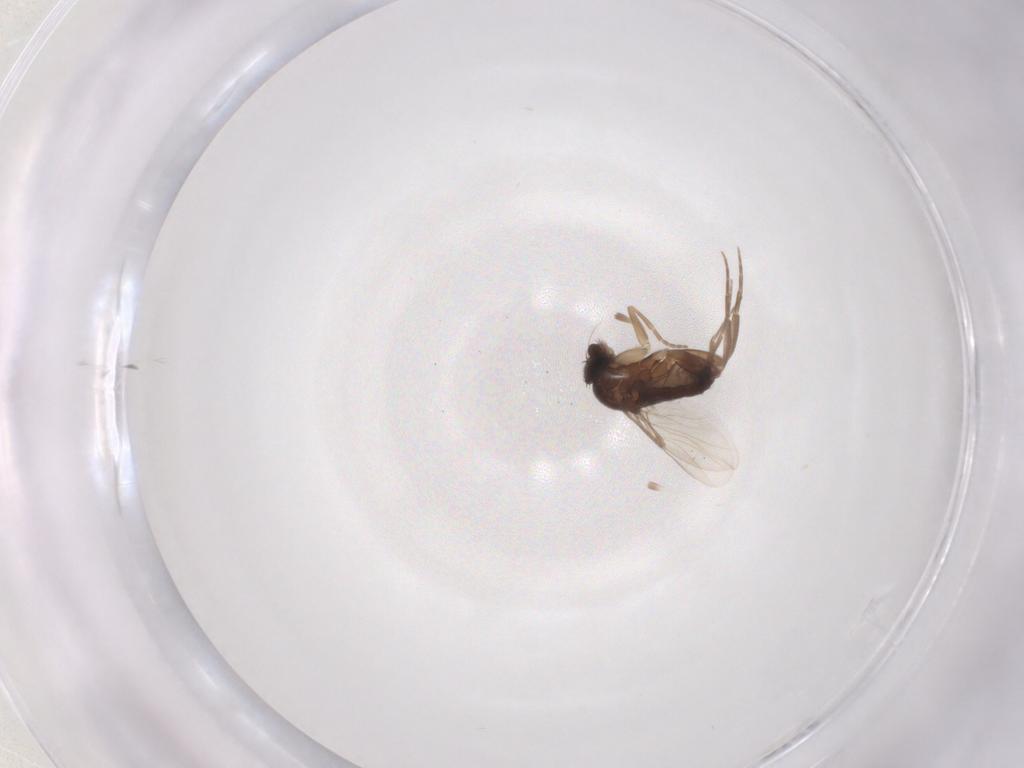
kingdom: Animalia
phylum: Arthropoda
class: Insecta
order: Diptera
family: Phoridae
